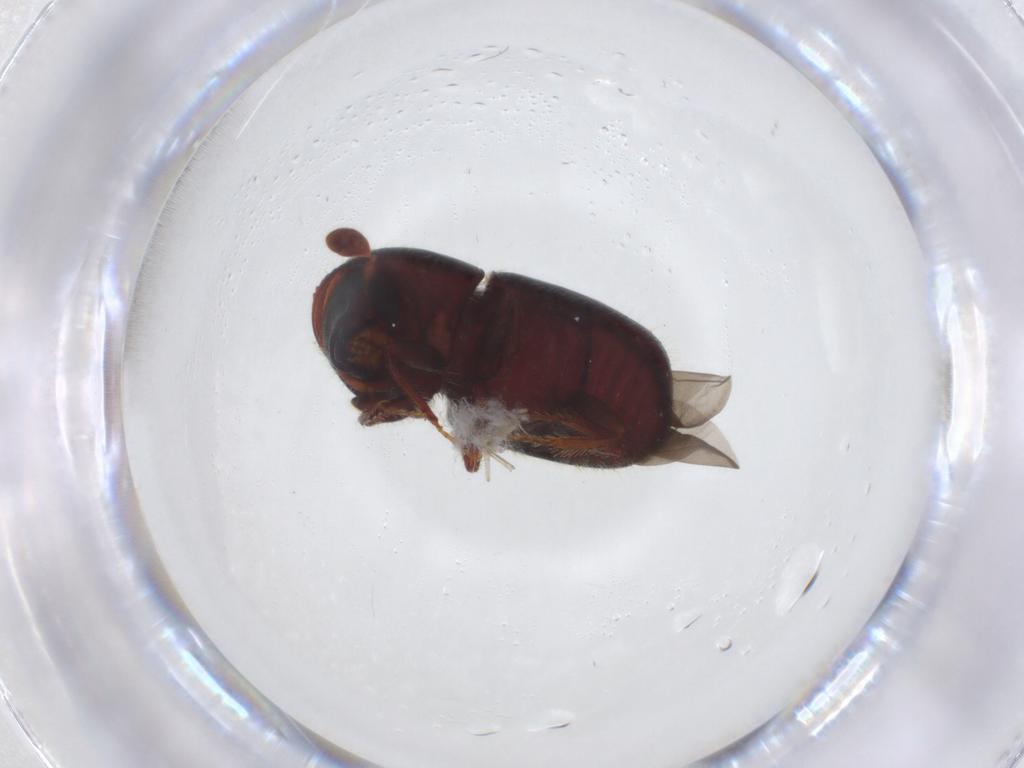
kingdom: Animalia
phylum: Arthropoda
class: Insecta
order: Coleoptera
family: Curculionidae
